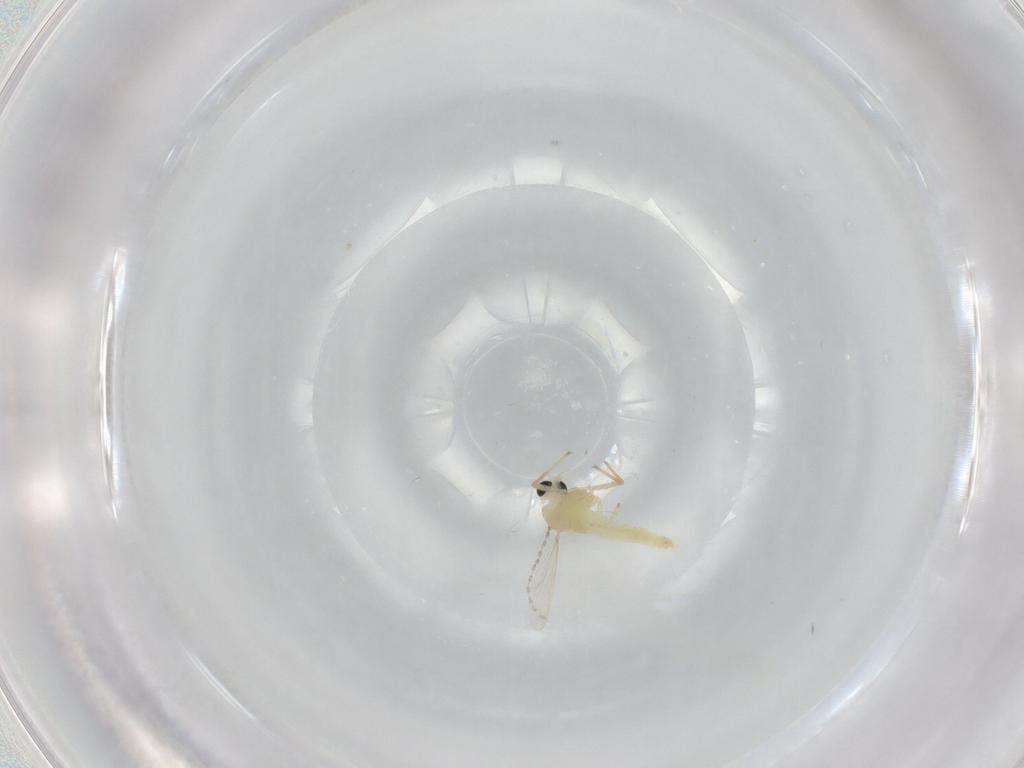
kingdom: Animalia
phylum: Arthropoda
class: Insecta
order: Diptera
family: Chironomidae
